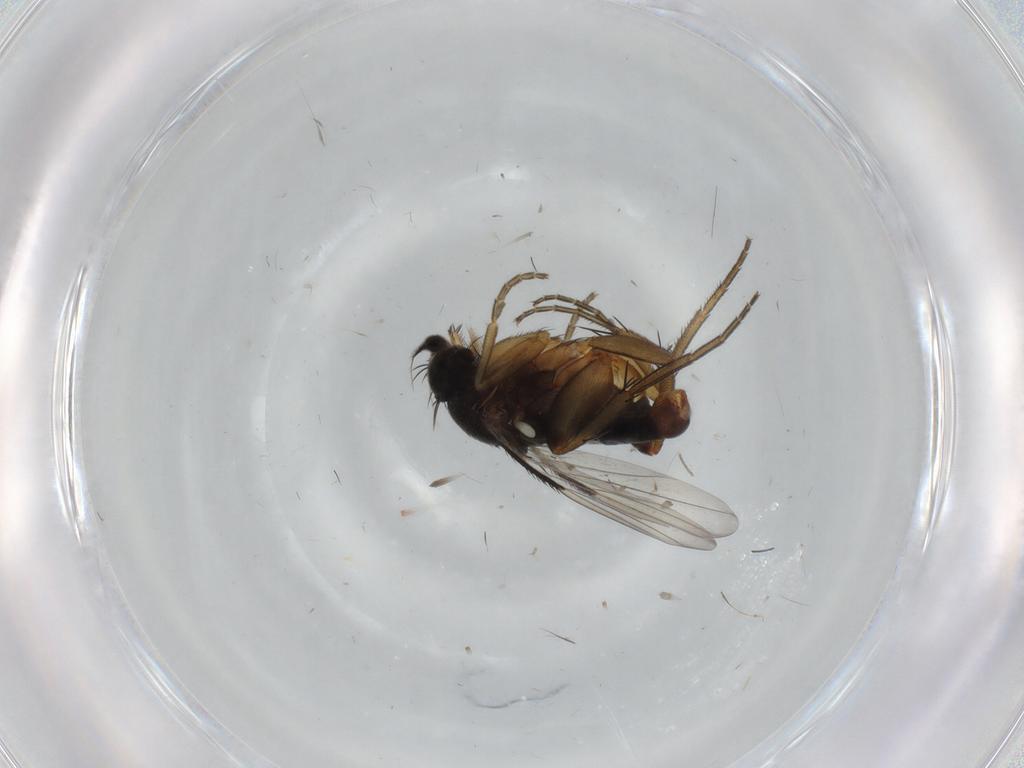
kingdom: Animalia
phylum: Arthropoda
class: Insecta
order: Diptera
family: Phoridae
